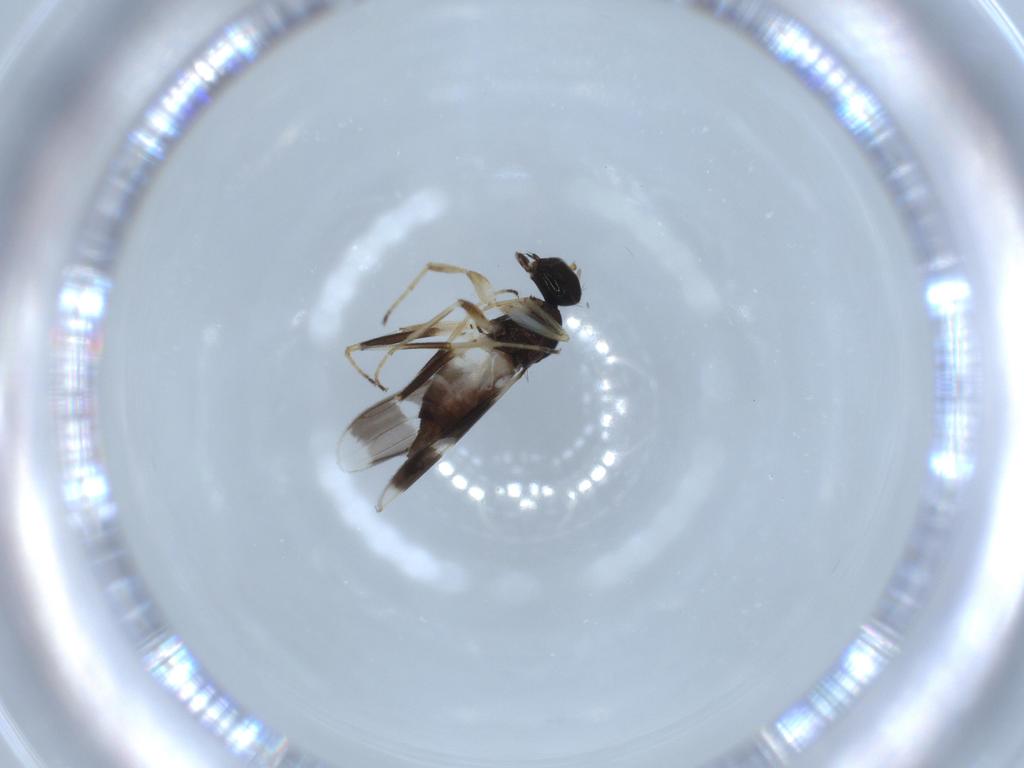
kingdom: Animalia
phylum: Arthropoda
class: Insecta
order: Diptera
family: Hybotidae
